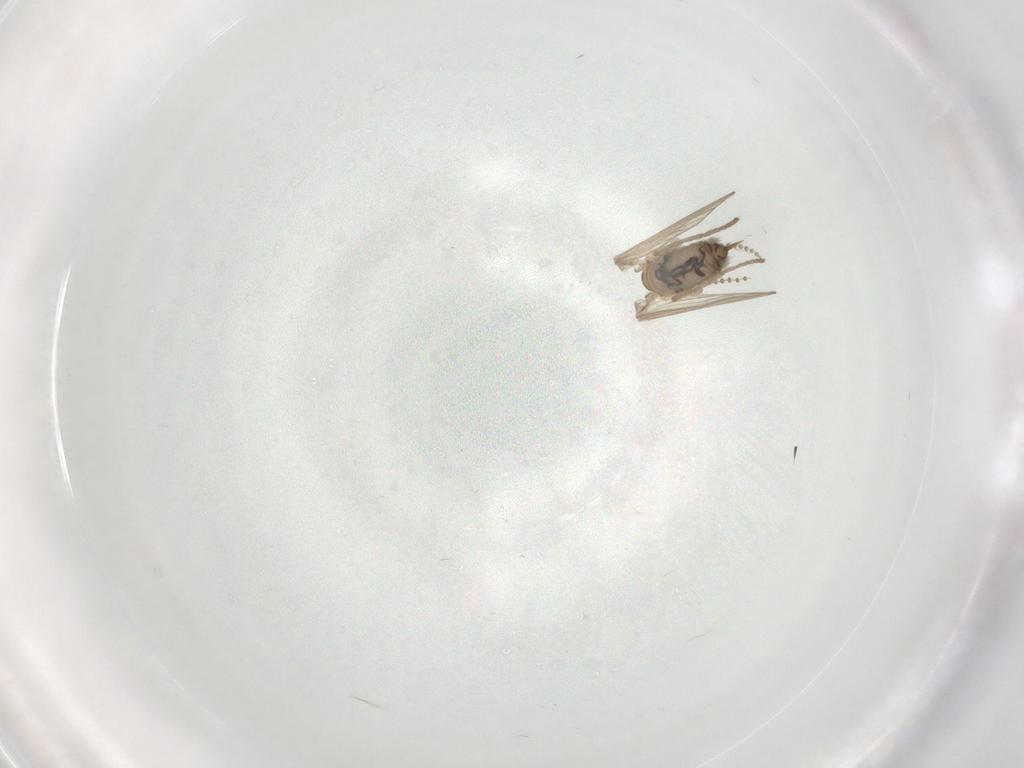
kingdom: Animalia
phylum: Arthropoda
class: Insecta
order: Diptera
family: Psychodidae
